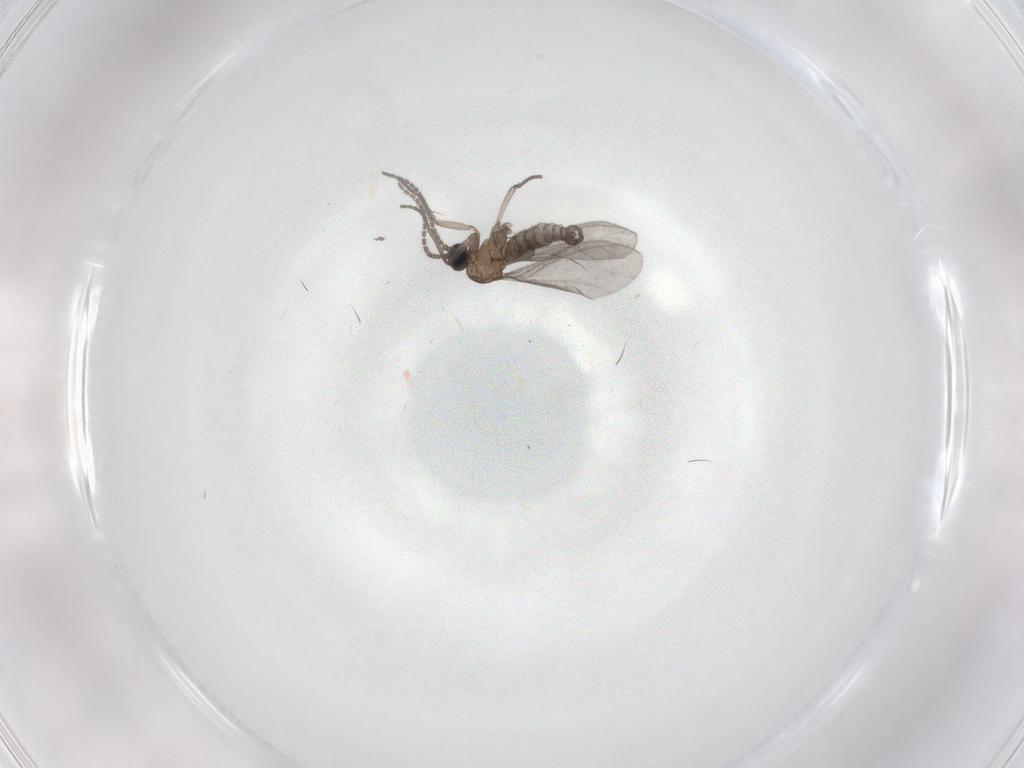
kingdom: Animalia
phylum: Arthropoda
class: Insecta
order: Diptera
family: Sciaridae
